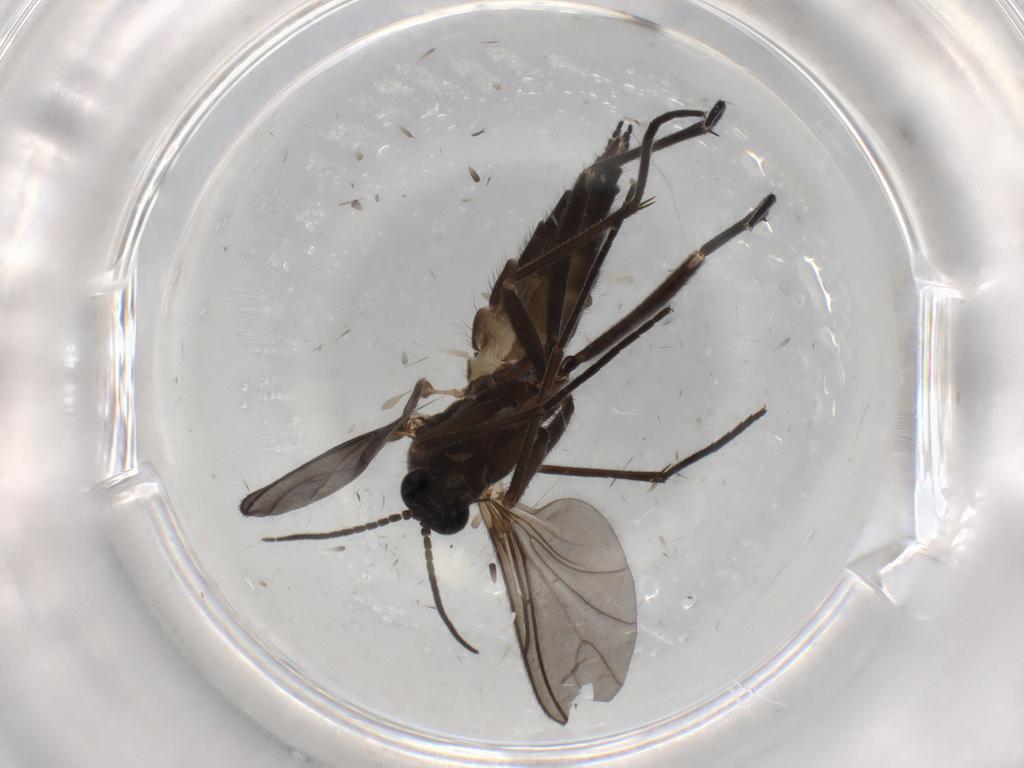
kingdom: Animalia
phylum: Arthropoda
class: Insecta
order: Diptera
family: Sciaridae
